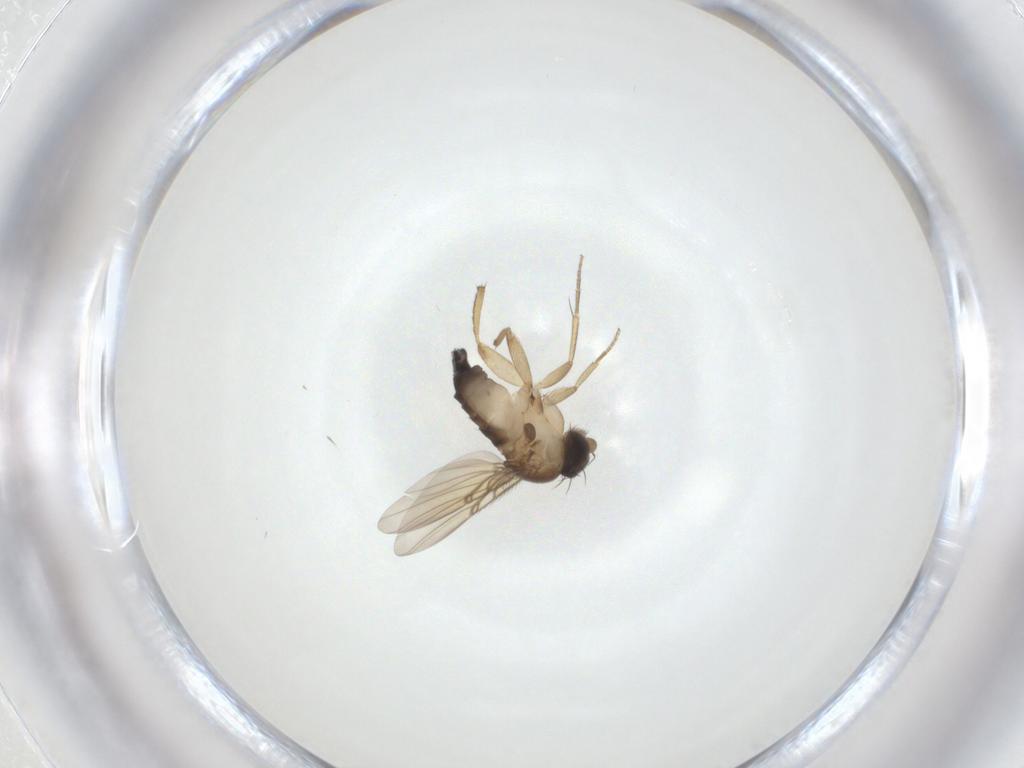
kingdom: Animalia
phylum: Arthropoda
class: Insecta
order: Diptera
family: Phoridae
